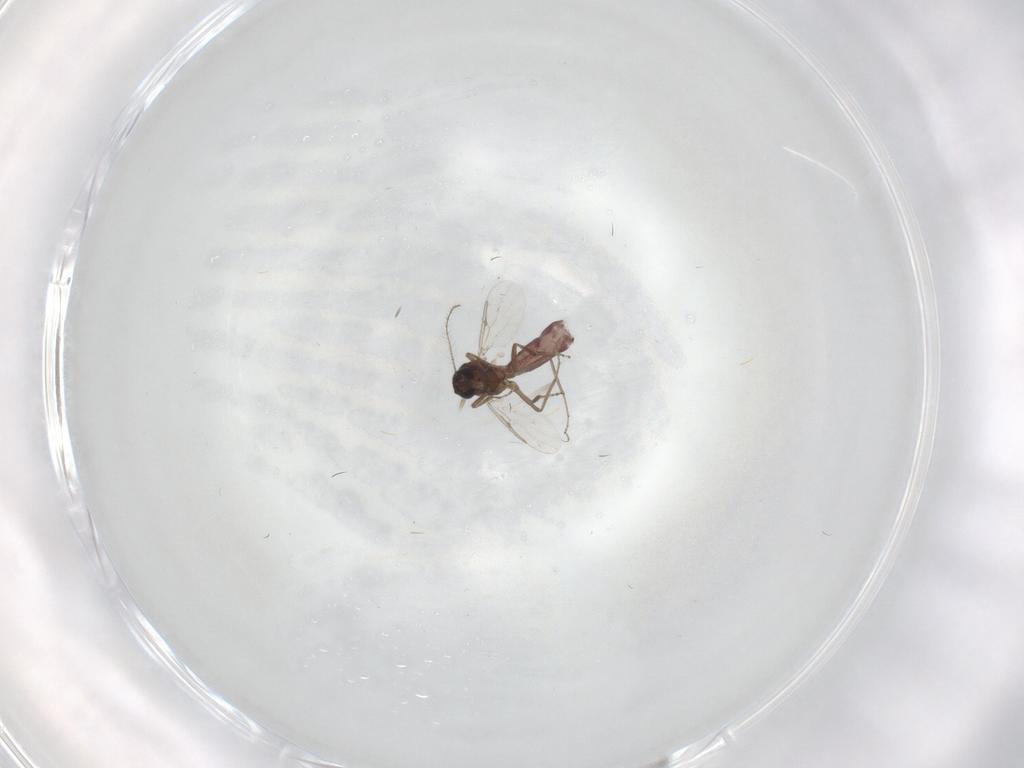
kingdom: Animalia
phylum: Arthropoda
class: Insecta
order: Diptera
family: Ceratopogonidae
